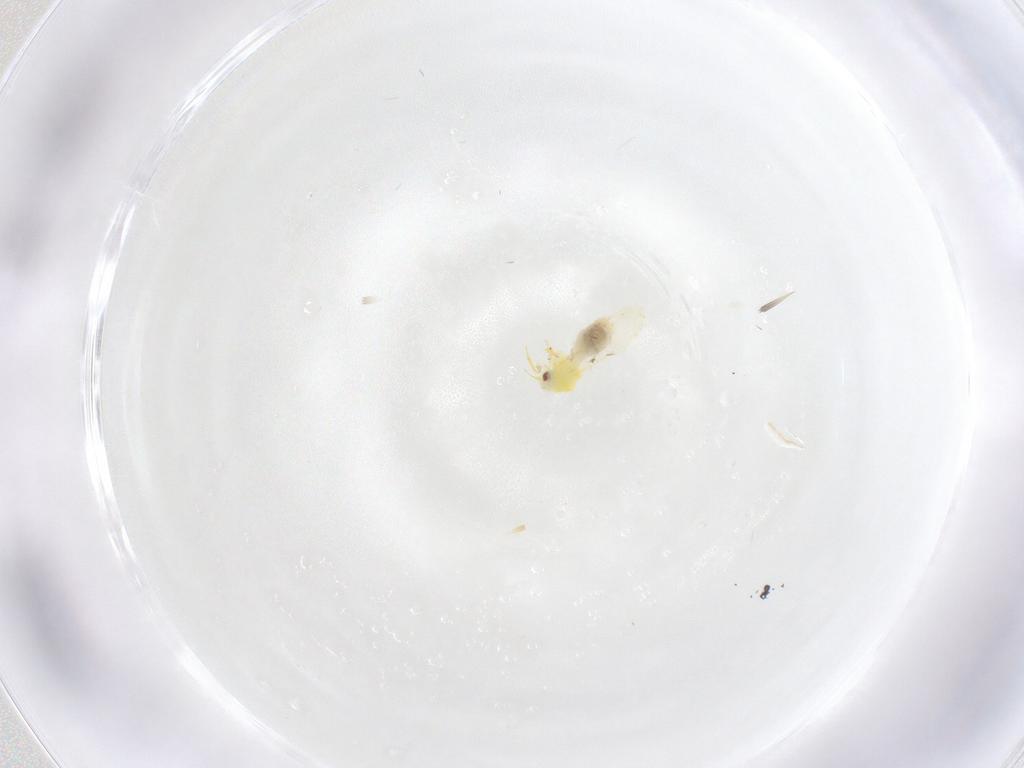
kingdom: Animalia
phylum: Arthropoda
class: Insecta
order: Hemiptera
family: Aleyrodidae
